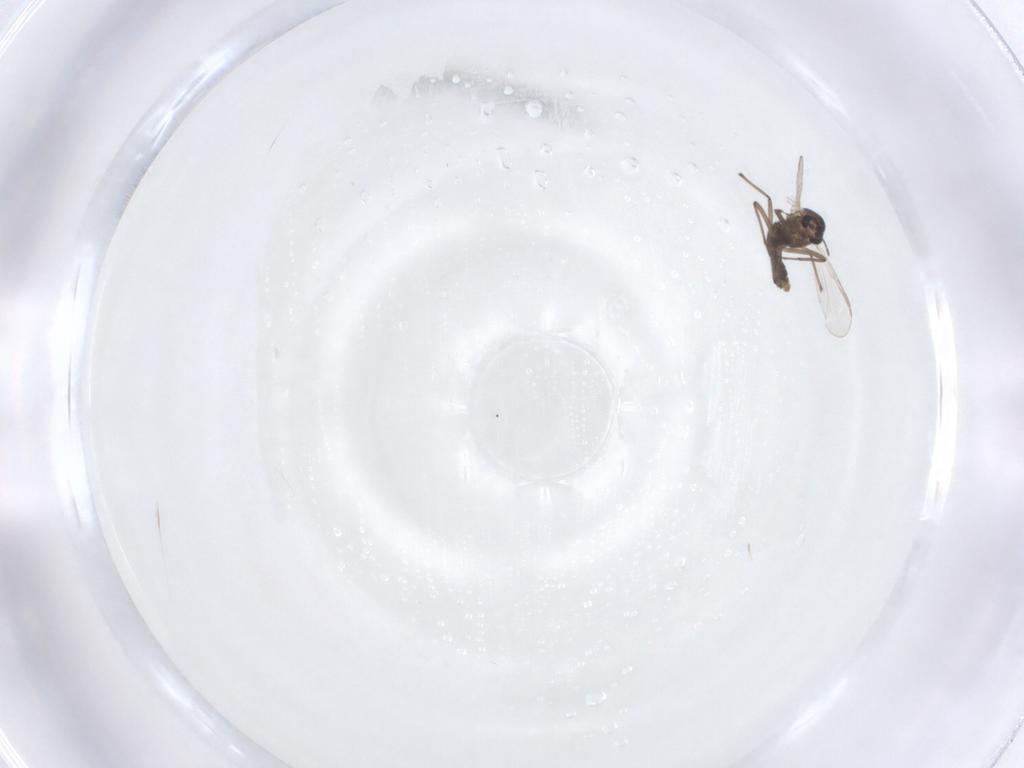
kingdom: Animalia
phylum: Arthropoda
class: Insecta
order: Diptera
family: Chironomidae
